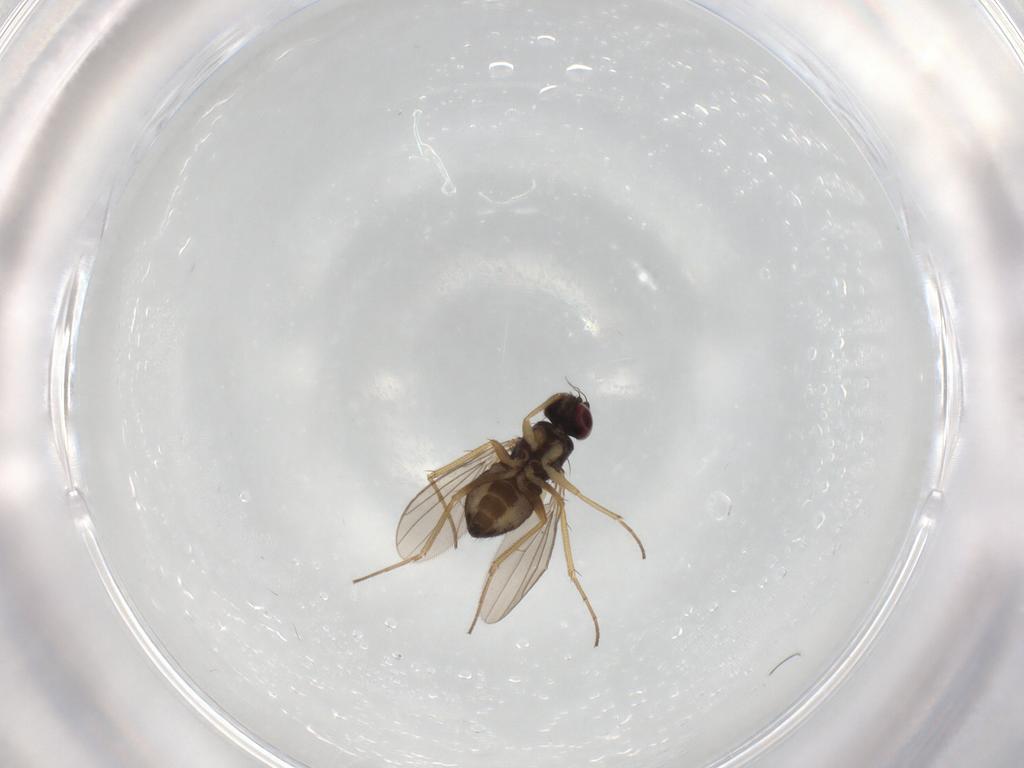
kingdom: Animalia
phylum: Arthropoda
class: Insecta
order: Diptera
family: Dolichopodidae
